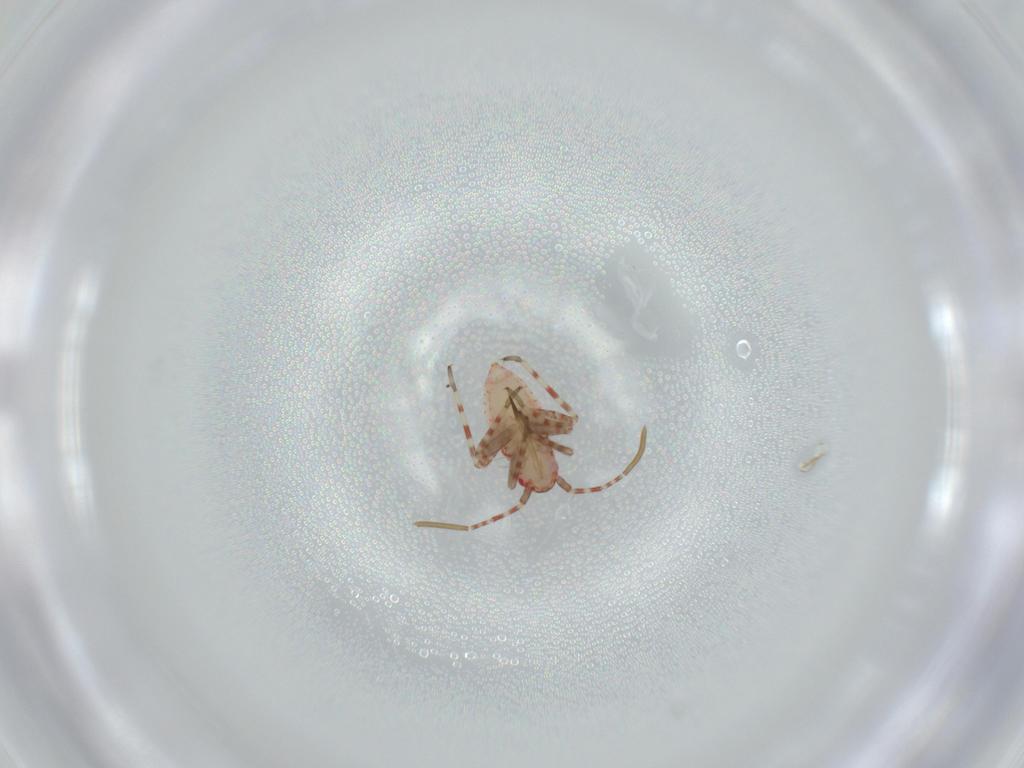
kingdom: Animalia
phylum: Arthropoda
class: Insecta
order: Hemiptera
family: Miridae
